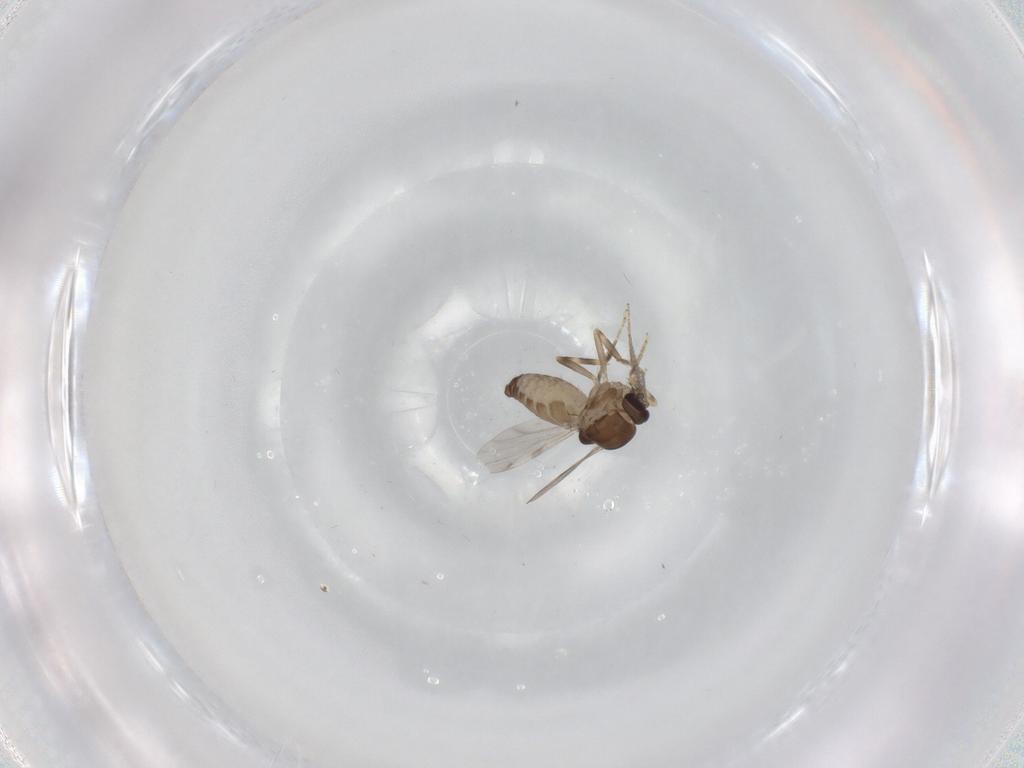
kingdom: Animalia
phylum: Arthropoda
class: Insecta
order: Diptera
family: Ceratopogonidae
